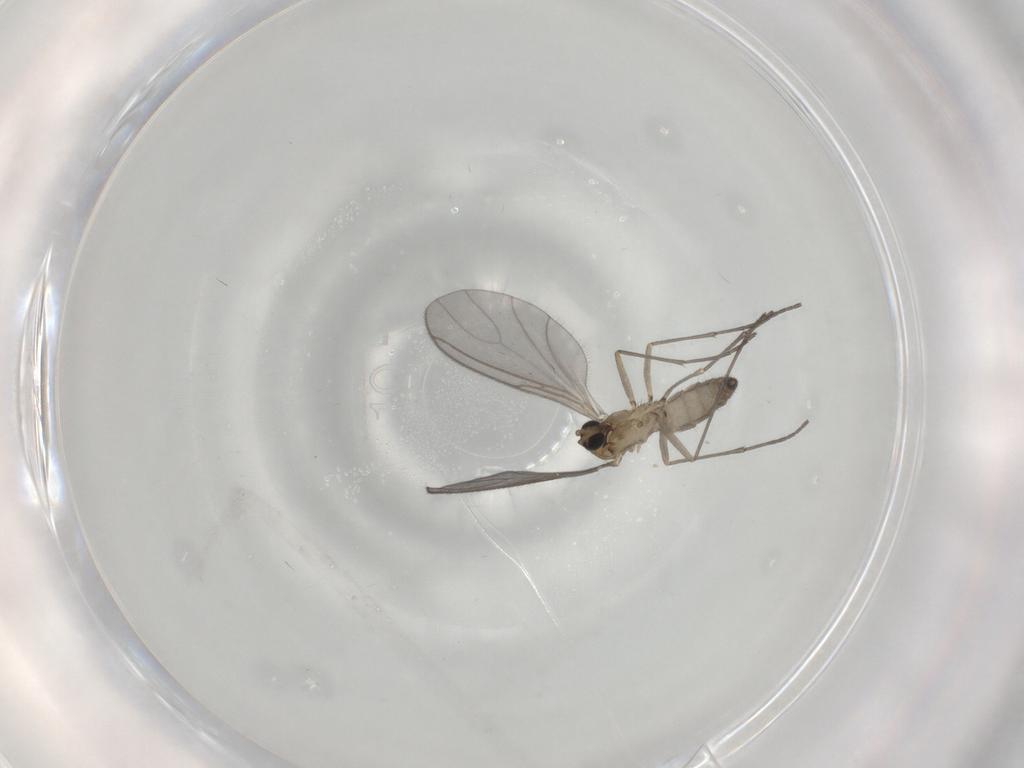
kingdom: Animalia
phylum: Arthropoda
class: Insecta
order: Diptera
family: Sciaridae
